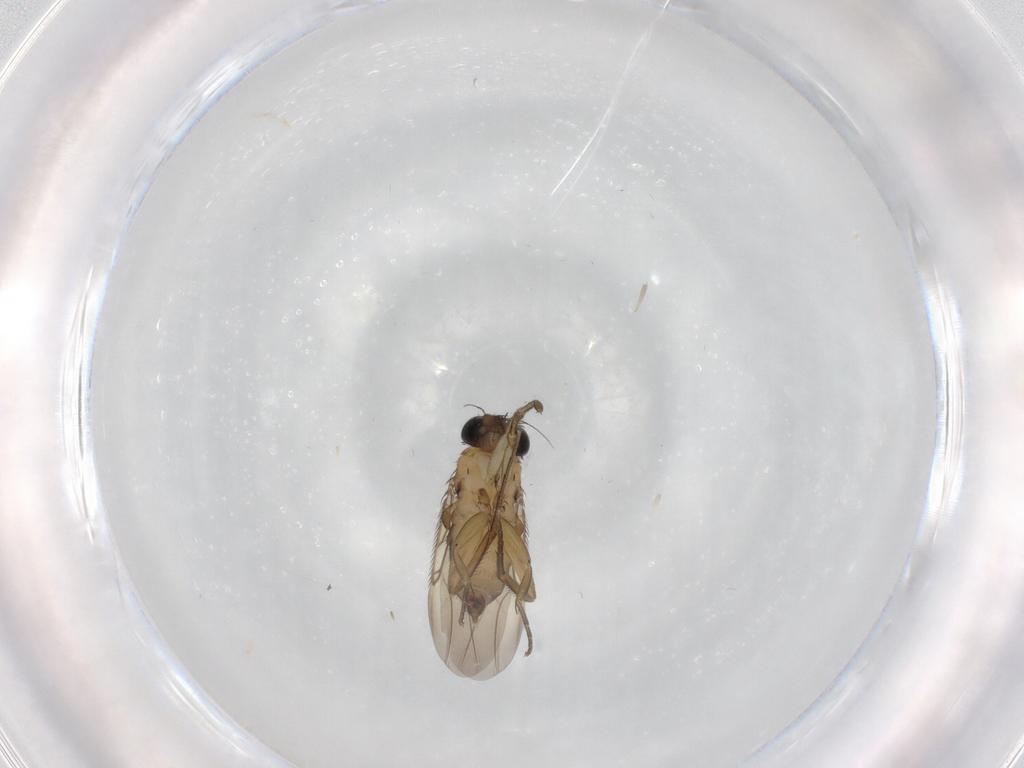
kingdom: Animalia
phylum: Arthropoda
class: Insecta
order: Diptera
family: Phoridae
